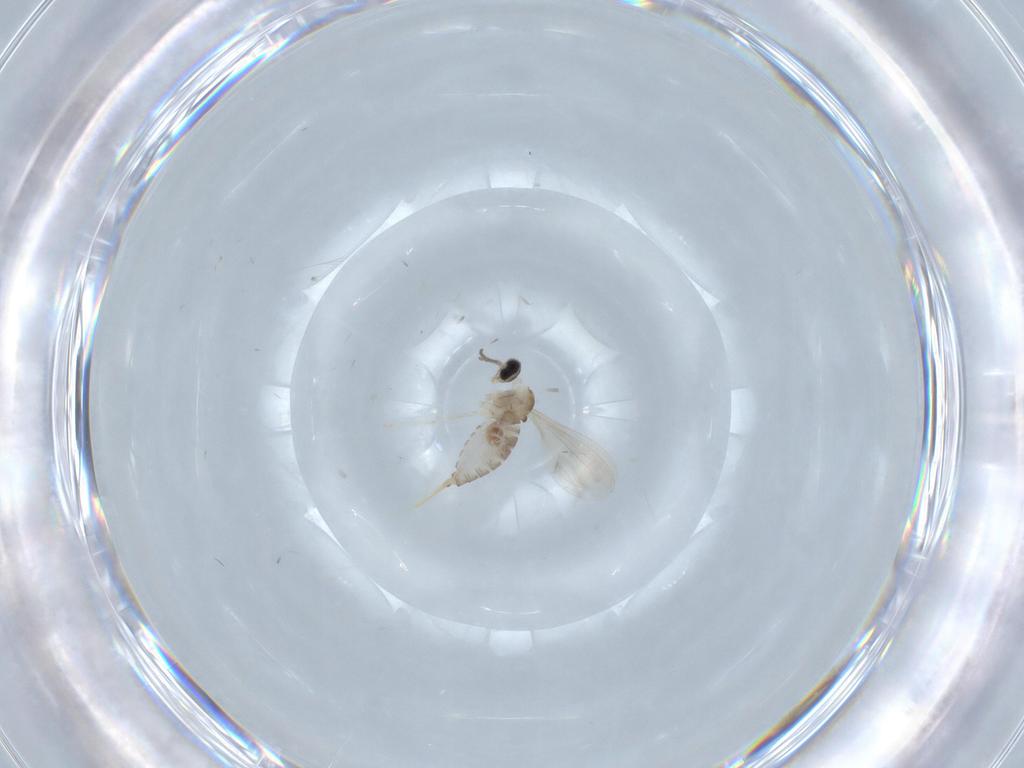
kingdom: Animalia
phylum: Arthropoda
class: Insecta
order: Diptera
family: Cecidomyiidae
